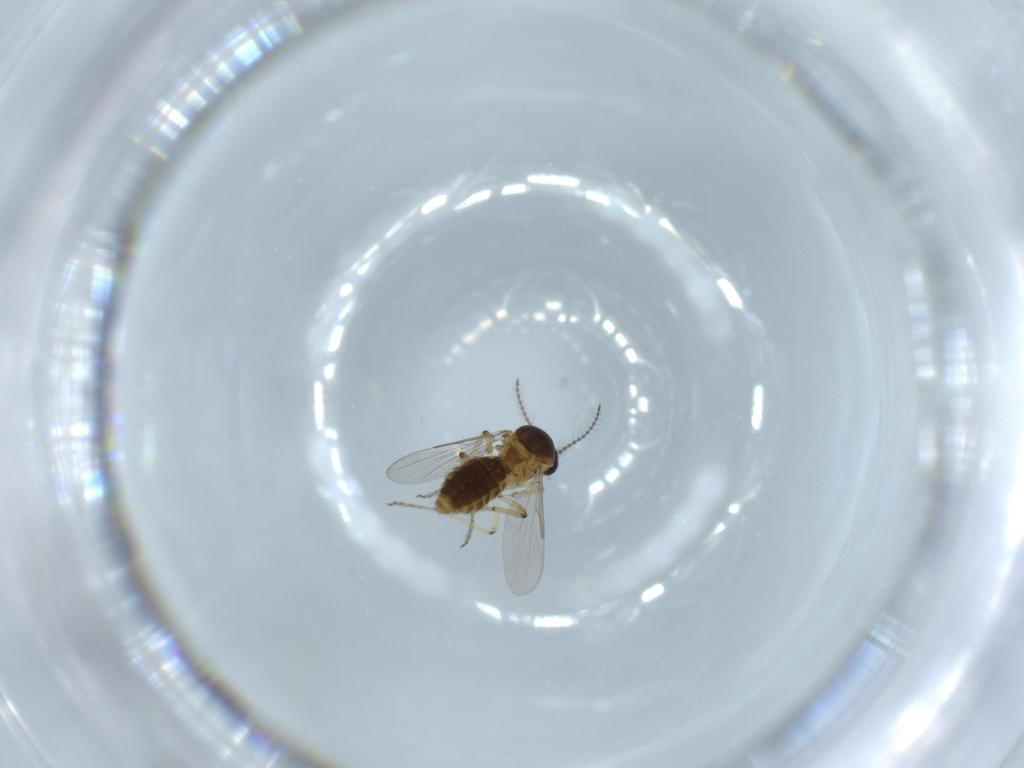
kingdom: Animalia
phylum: Arthropoda
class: Insecta
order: Diptera
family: Ceratopogonidae
